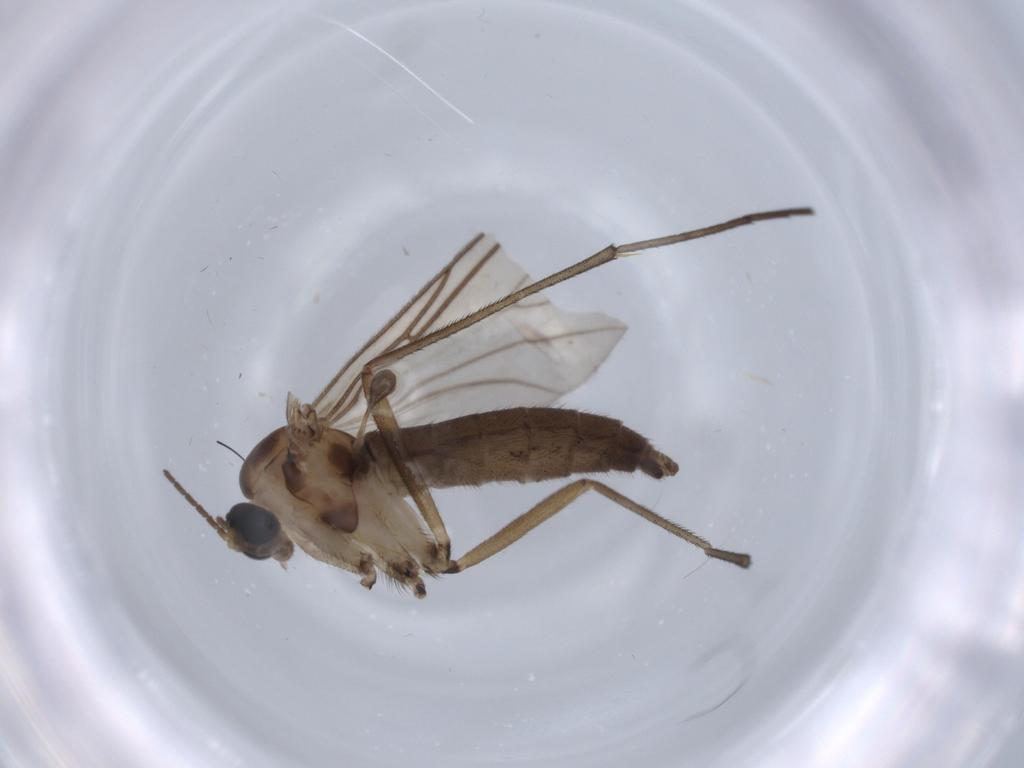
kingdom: Animalia
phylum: Arthropoda
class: Insecta
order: Diptera
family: Cecidomyiidae
